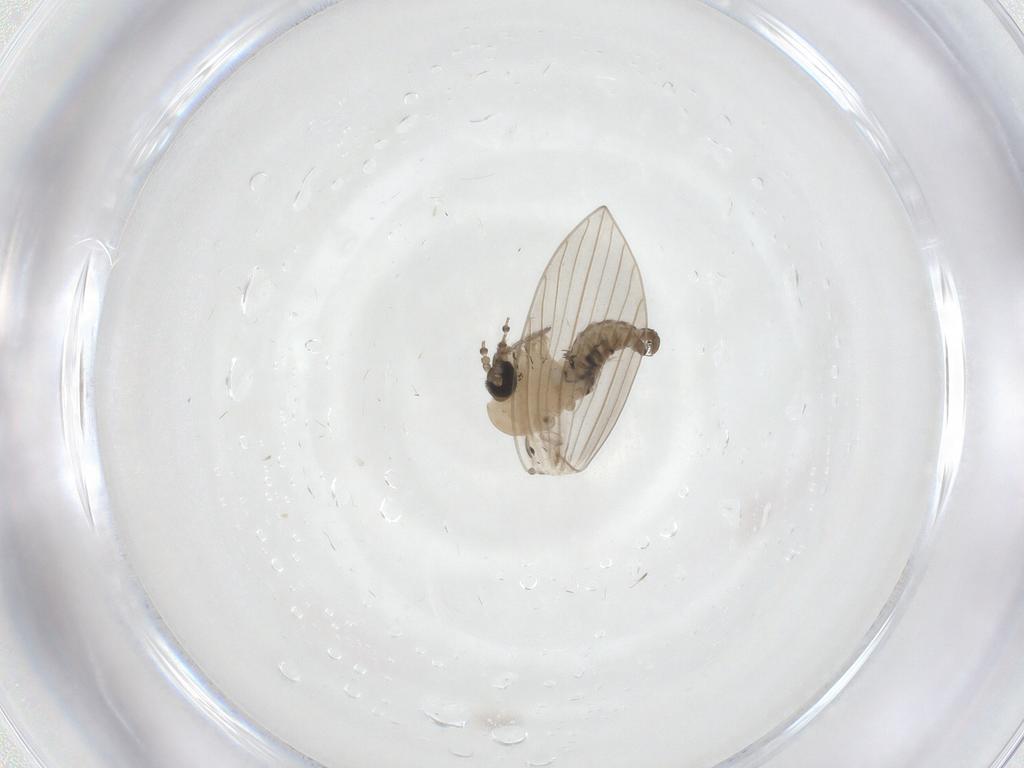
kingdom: Animalia
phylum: Arthropoda
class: Insecta
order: Diptera
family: Psychodidae
